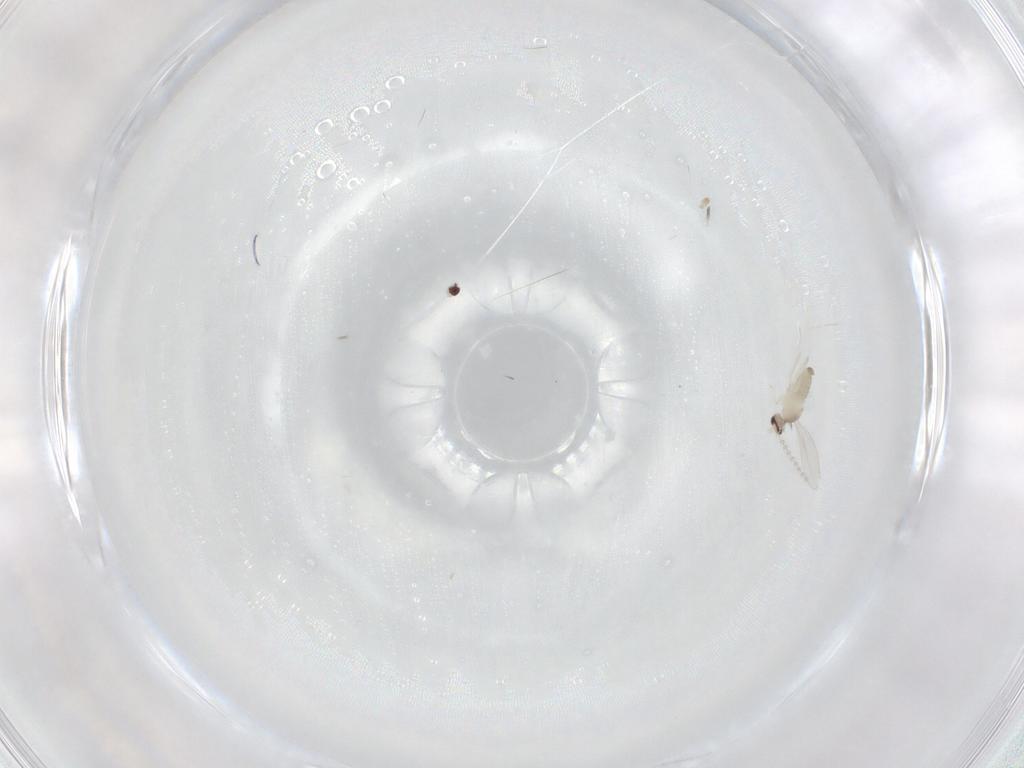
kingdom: Animalia
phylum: Arthropoda
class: Insecta
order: Diptera
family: Cecidomyiidae
